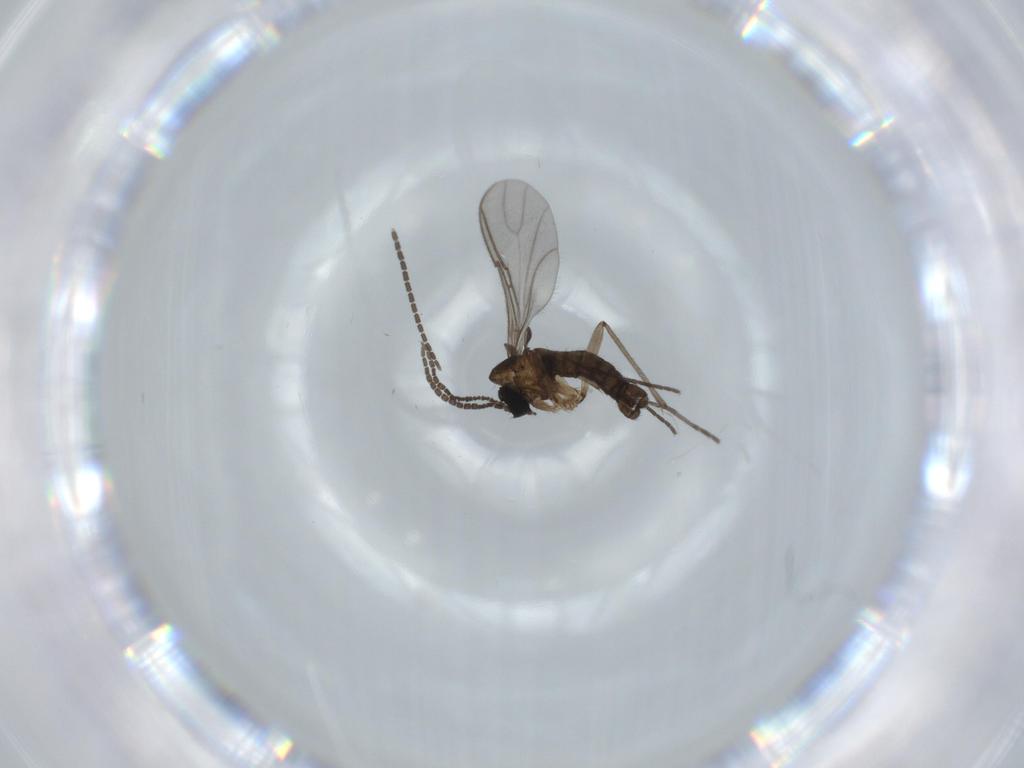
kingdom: Animalia
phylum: Arthropoda
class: Insecta
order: Diptera
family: Sciaridae
